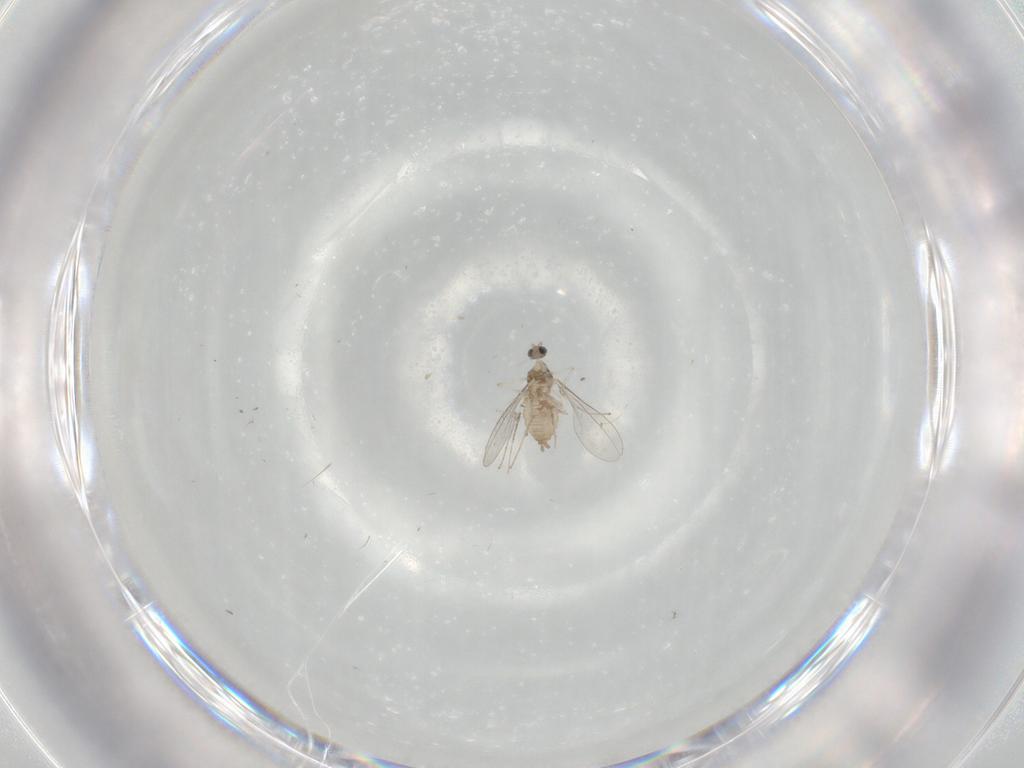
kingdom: Animalia
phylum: Arthropoda
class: Insecta
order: Diptera
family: Cecidomyiidae
